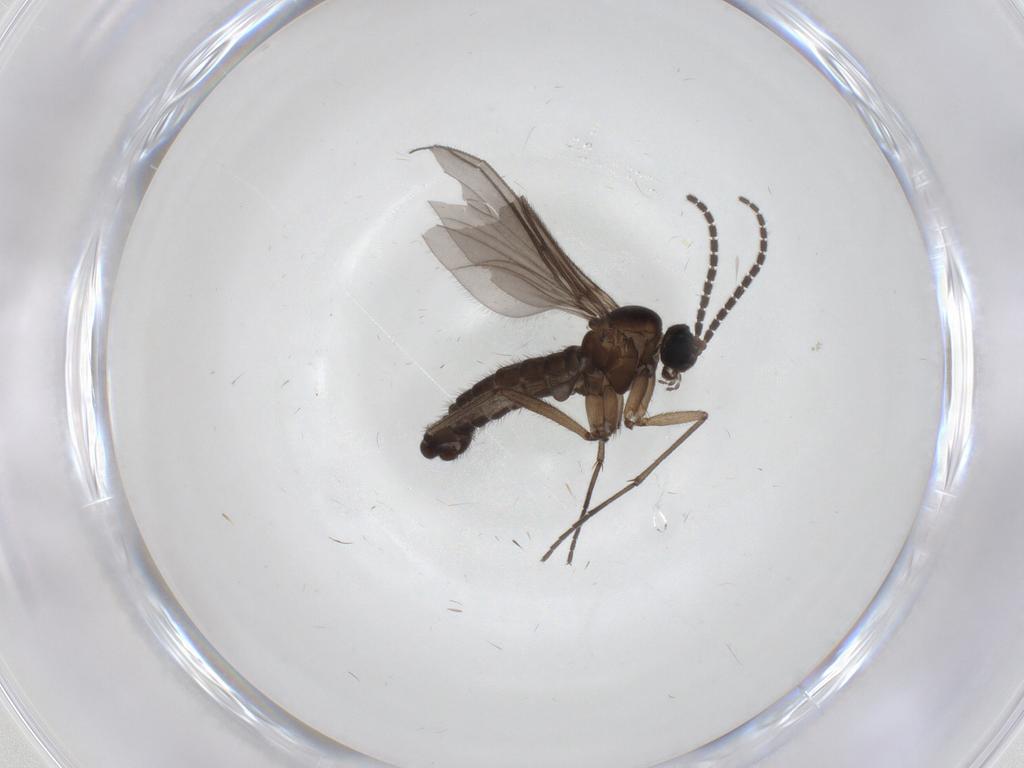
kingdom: Animalia
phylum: Arthropoda
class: Insecta
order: Diptera
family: Sciaridae
